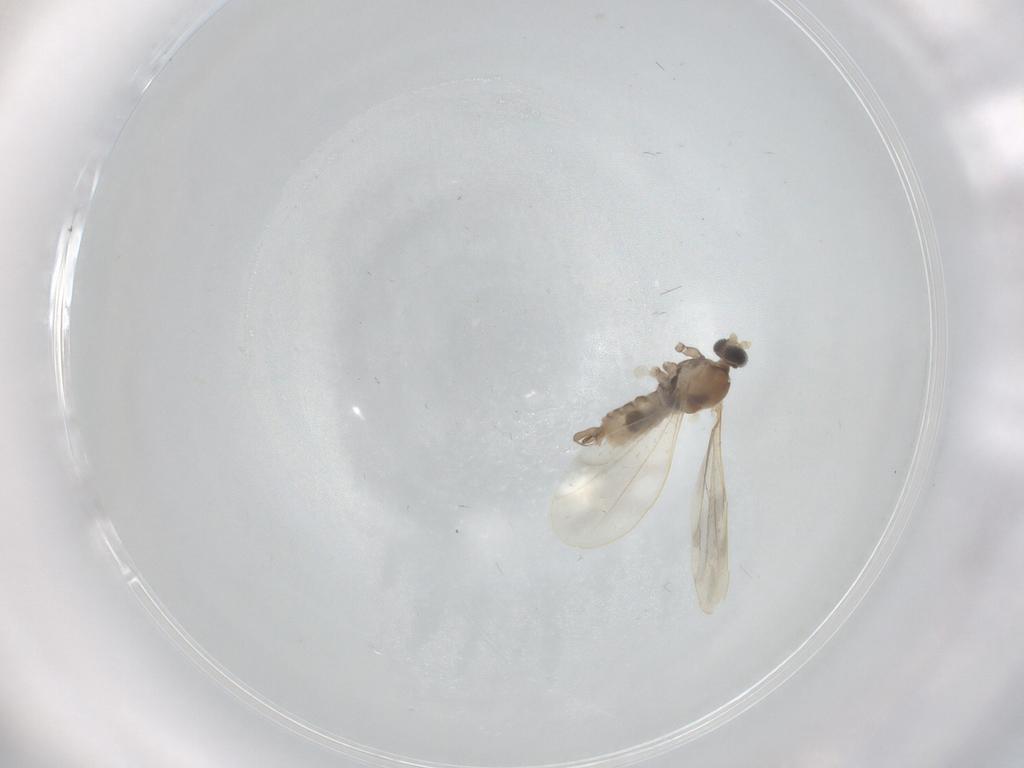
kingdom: Animalia
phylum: Arthropoda
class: Insecta
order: Diptera
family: Cecidomyiidae
